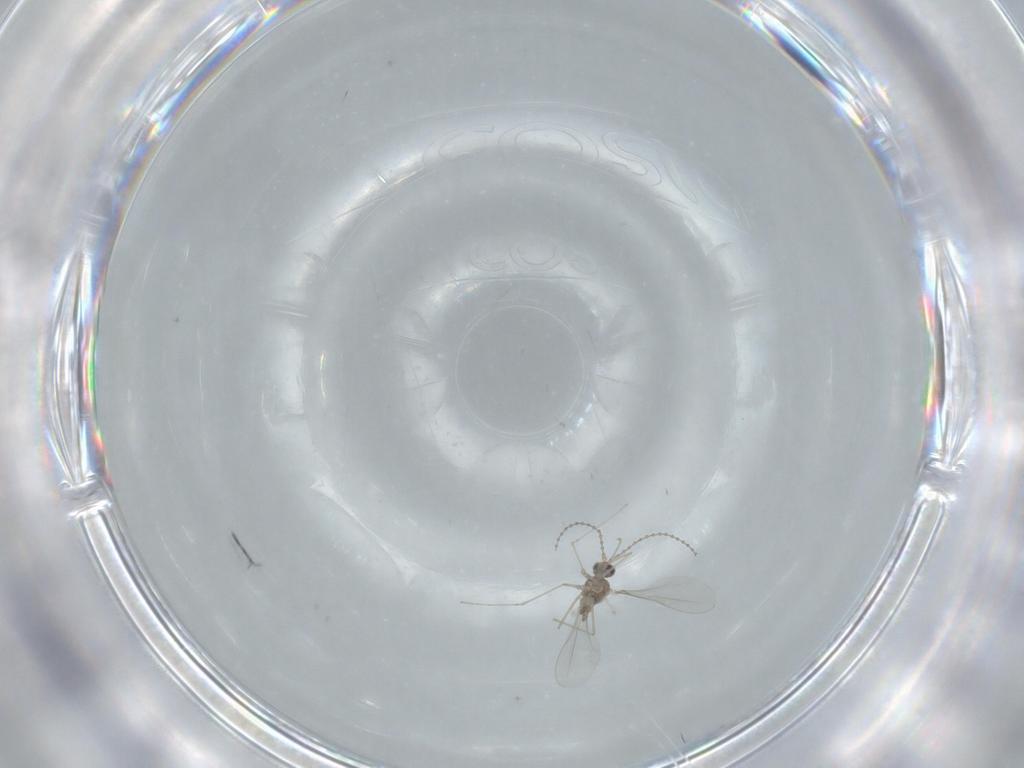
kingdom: Animalia
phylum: Arthropoda
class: Insecta
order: Diptera
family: Cecidomyiidae
